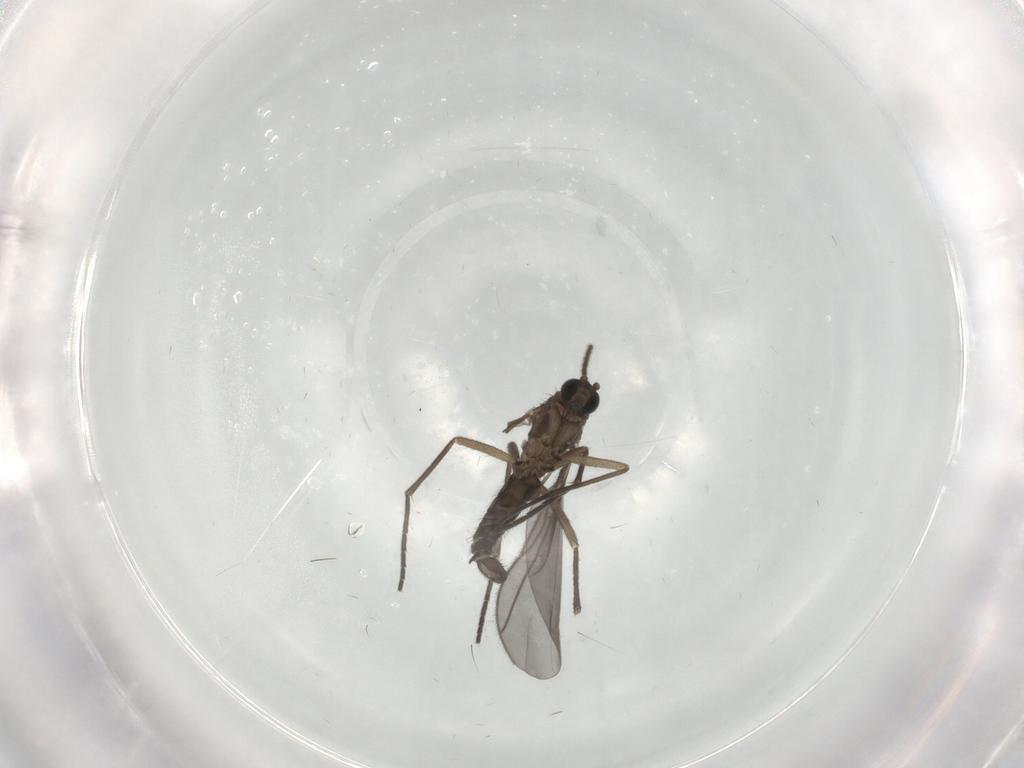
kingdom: Animalia
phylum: Arthropoda
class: Insecta
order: Diptera
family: Sciaridae
